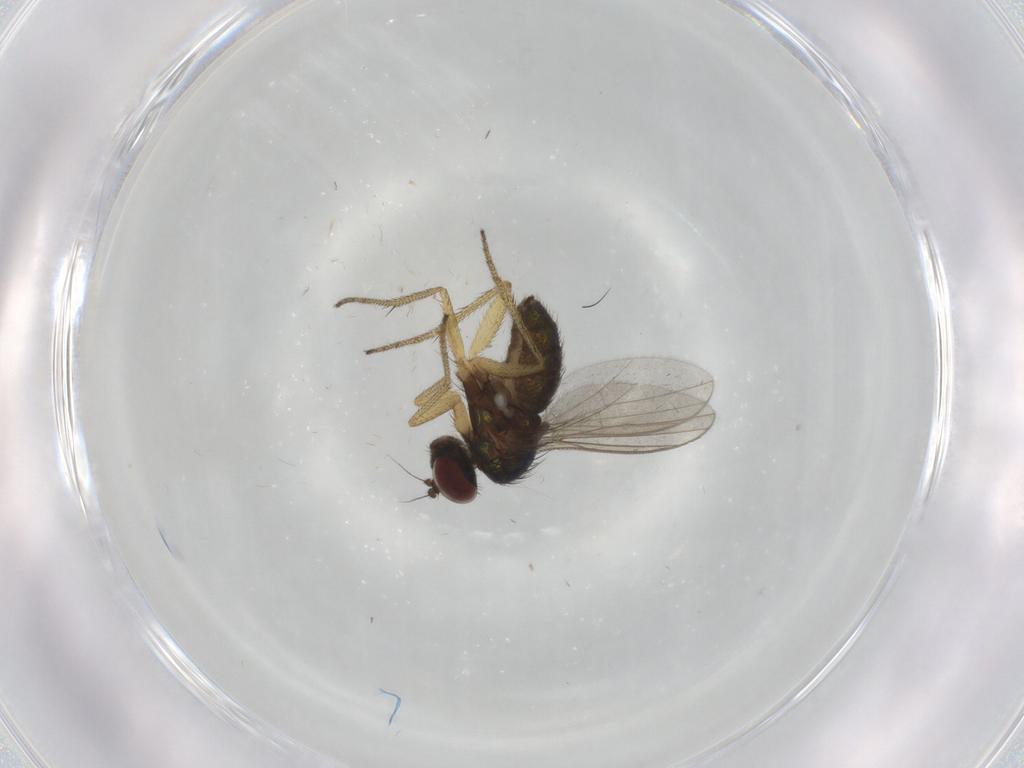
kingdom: Animalia
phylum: Arthropoda
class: Insecta
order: Diptera
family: Dolichopodidae
